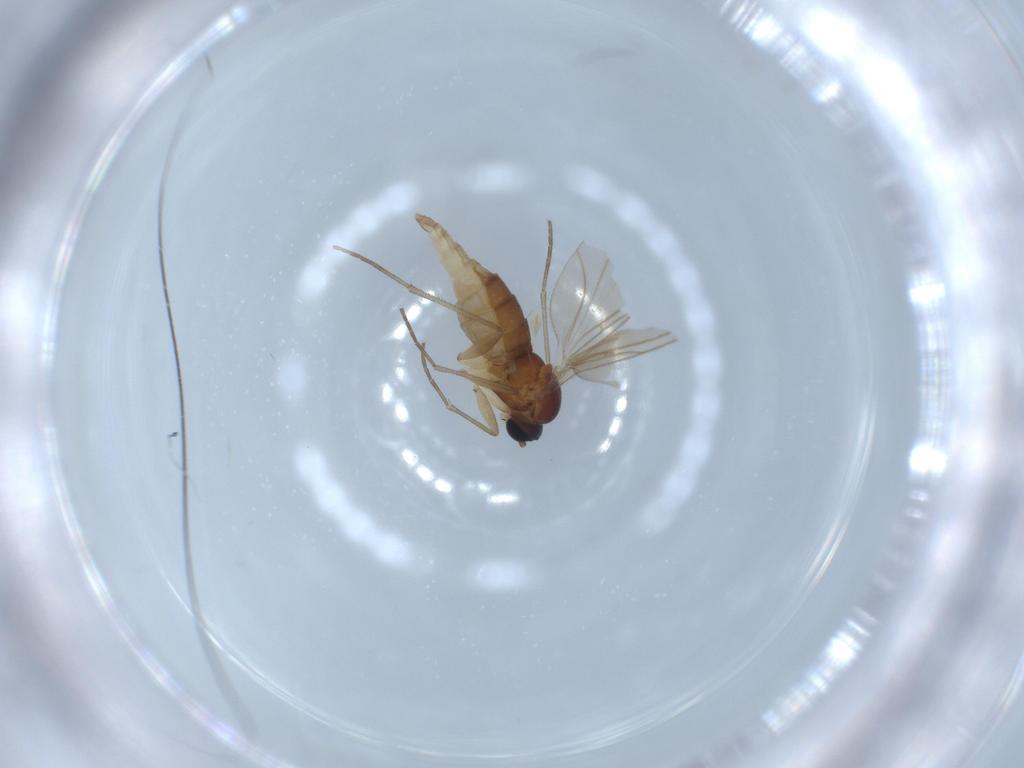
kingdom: Animalia
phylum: Arthropoda
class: Insecta
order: Diptera
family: Sciaridae
